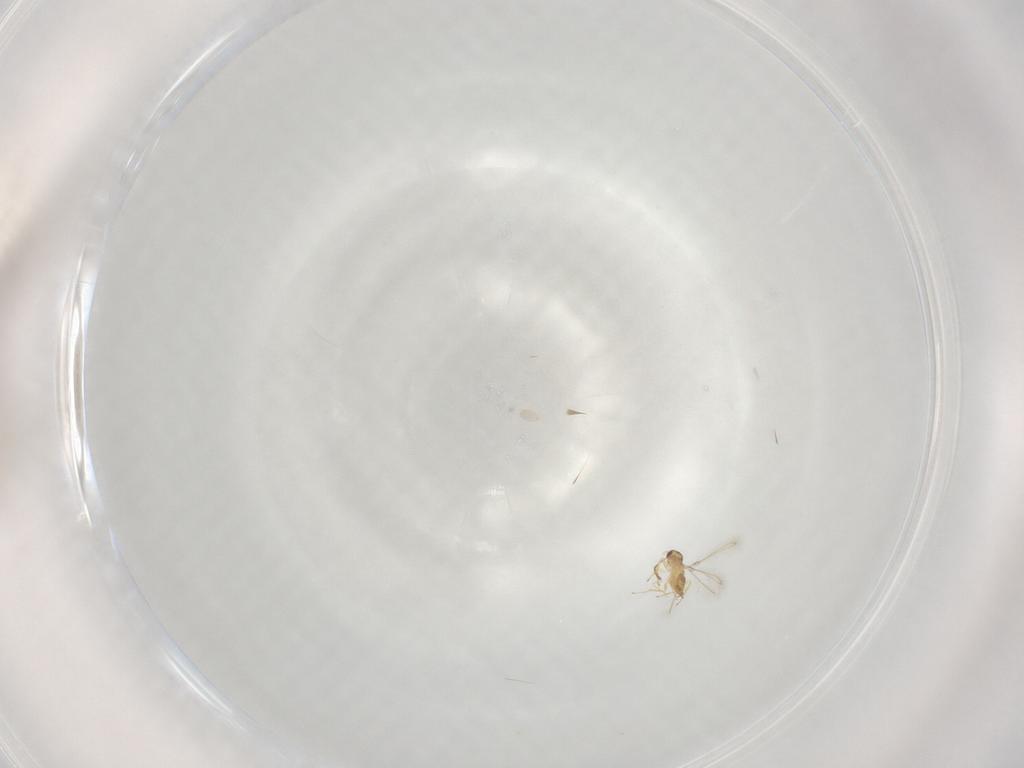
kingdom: Animalia
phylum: Arthropoda
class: Insecta
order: Hymenoptera
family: Mymaridae
